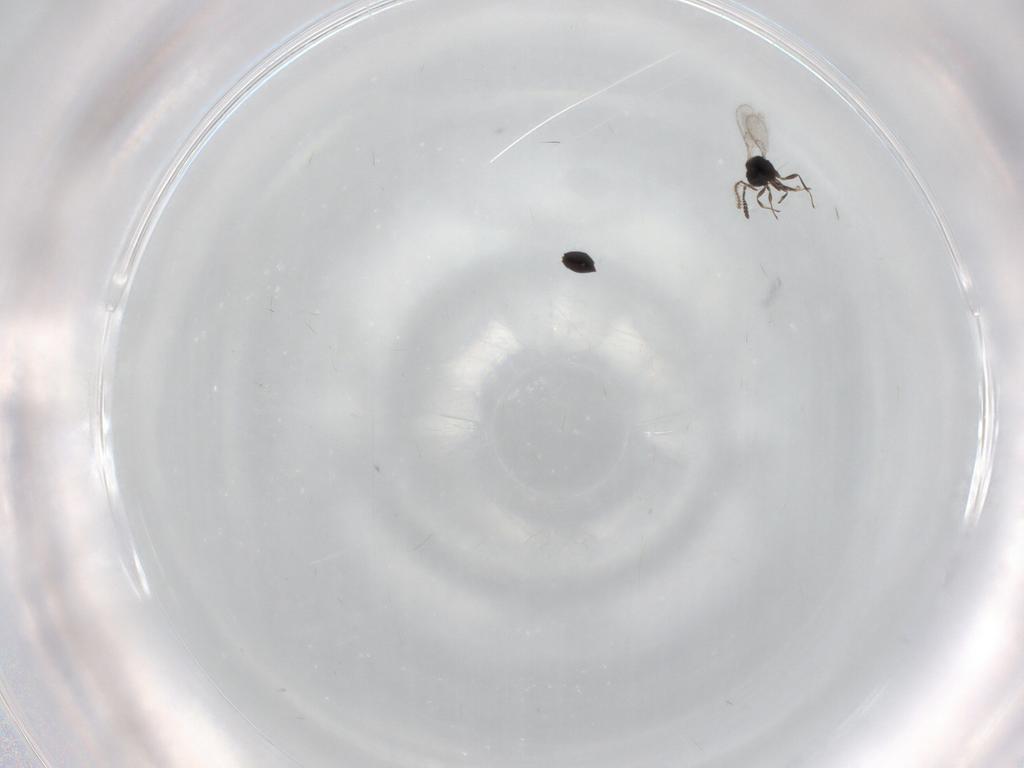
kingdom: Animalia
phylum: Arthropoda
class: Insecta
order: Hymenoptera
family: Scelionidae
